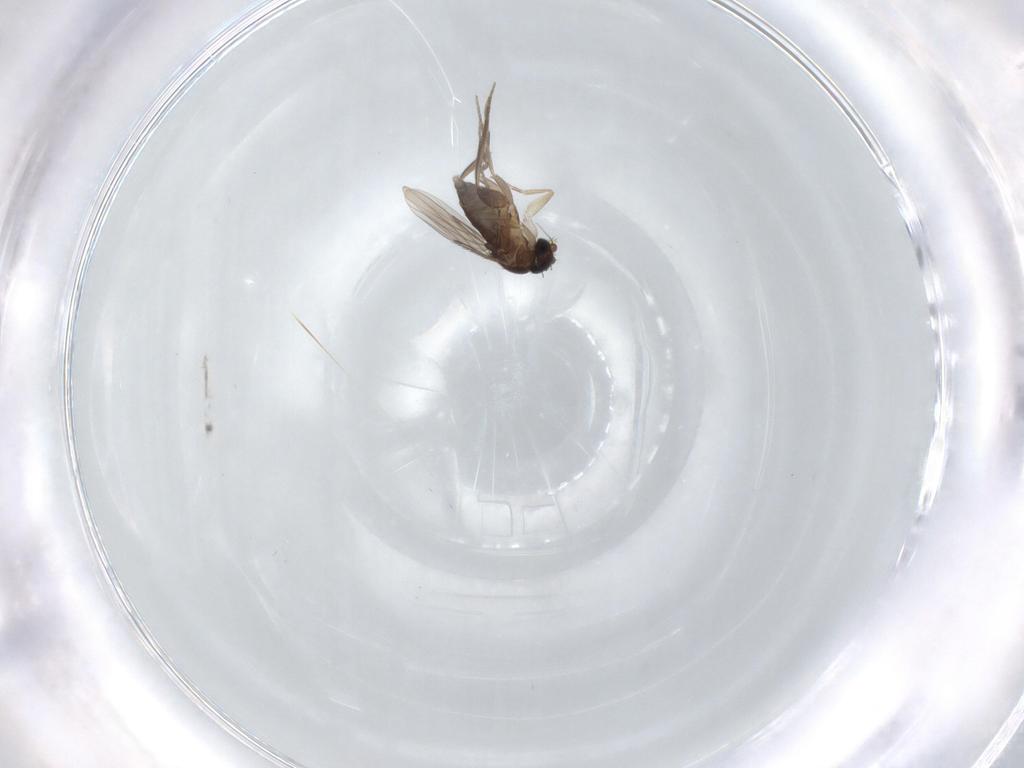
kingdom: Animalia
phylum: Arthropoda
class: Insecta
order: Diptera
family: Phoridae
